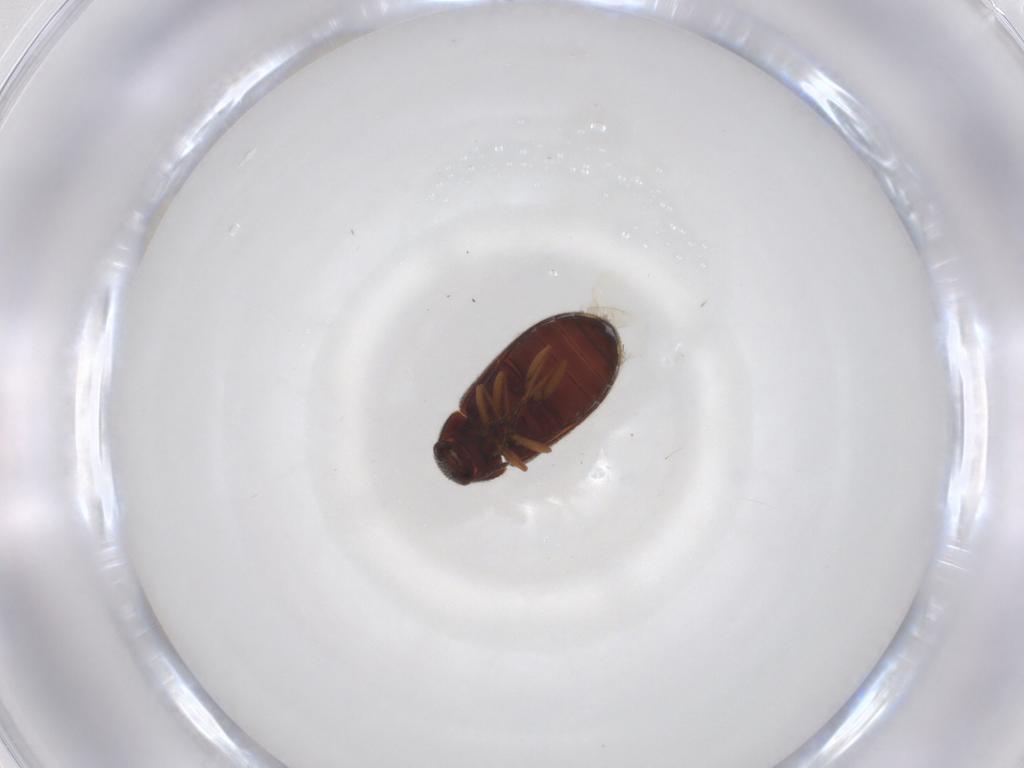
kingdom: Animalia
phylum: Arthropoda
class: Insecta
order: Coleoptera
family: Rhadalidae
